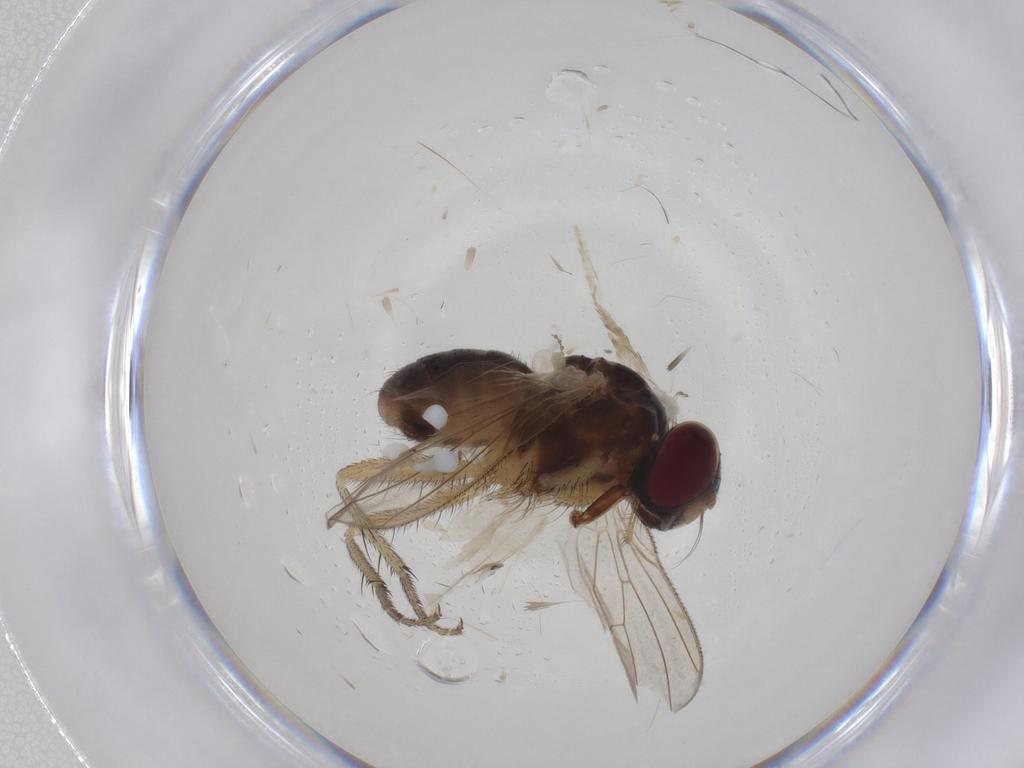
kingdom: Animalia
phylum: Arthropoda
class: Insecta
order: Diptera
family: Muscidae
